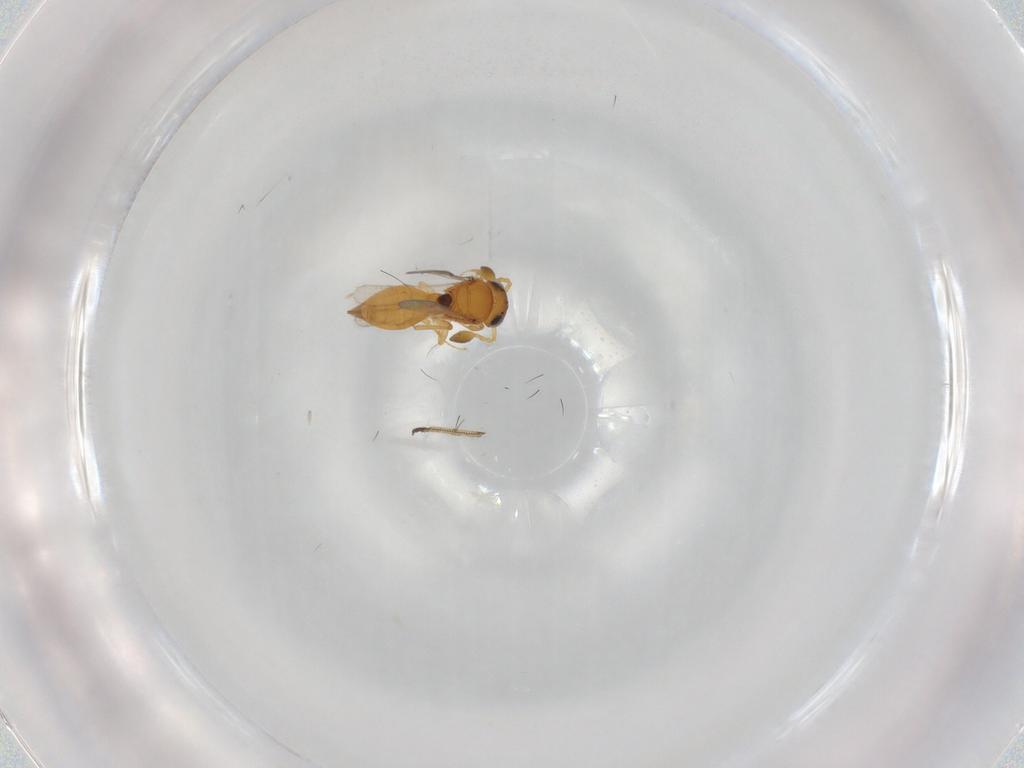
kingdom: Animalia
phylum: Arthropoda
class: Insecta
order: Hymenoptera
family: Scelionidae
